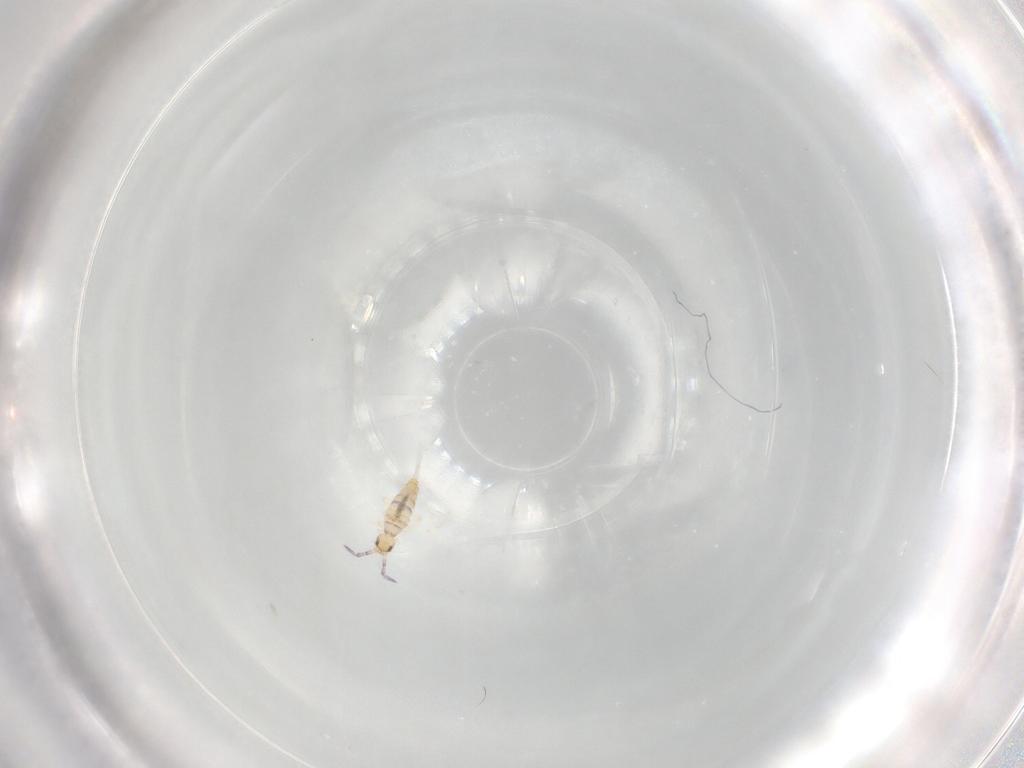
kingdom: Animalia
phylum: Arthropoda
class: Collembola
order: Entomobryomorpha
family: Entomobryidae
